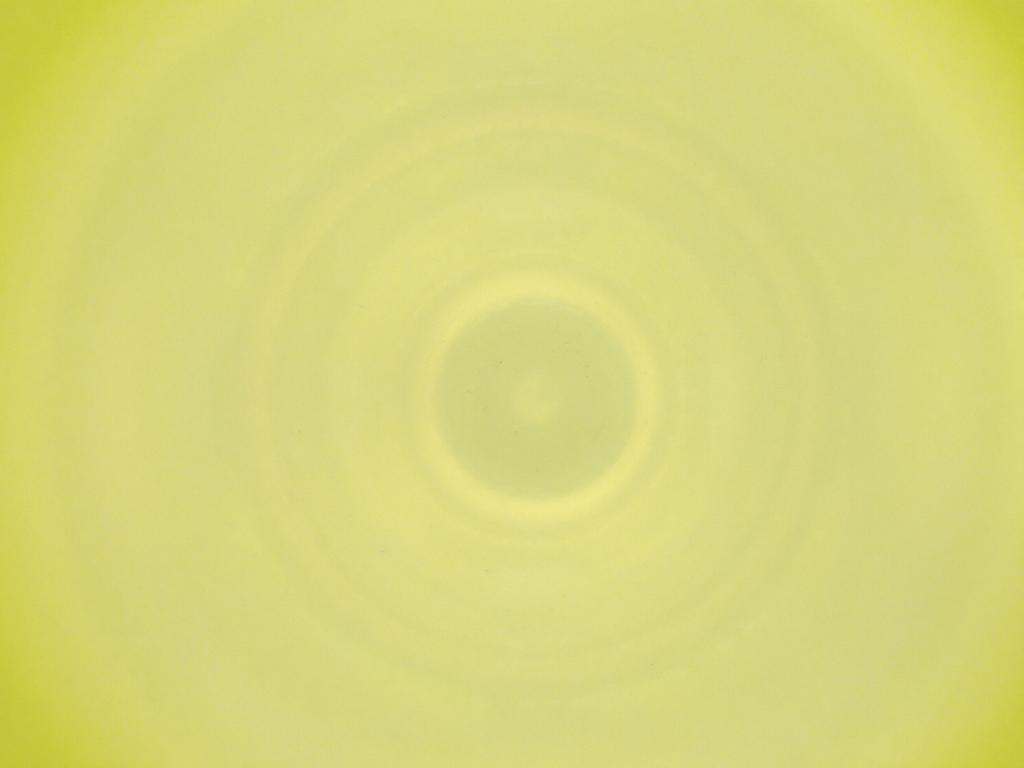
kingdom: Animalia
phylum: Arthropoda
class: Insecta
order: Diptera
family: Cecidomyiidae
